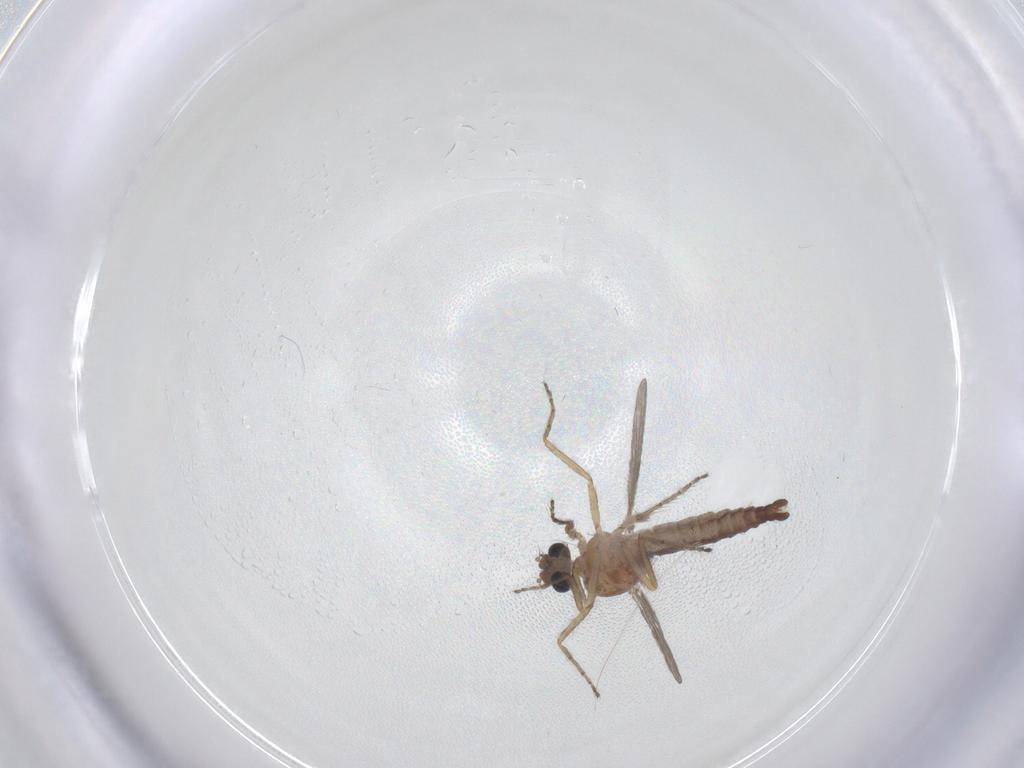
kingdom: Animalia
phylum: Arthropoda
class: Insecta
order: Diptera
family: Ceratopogonidae
